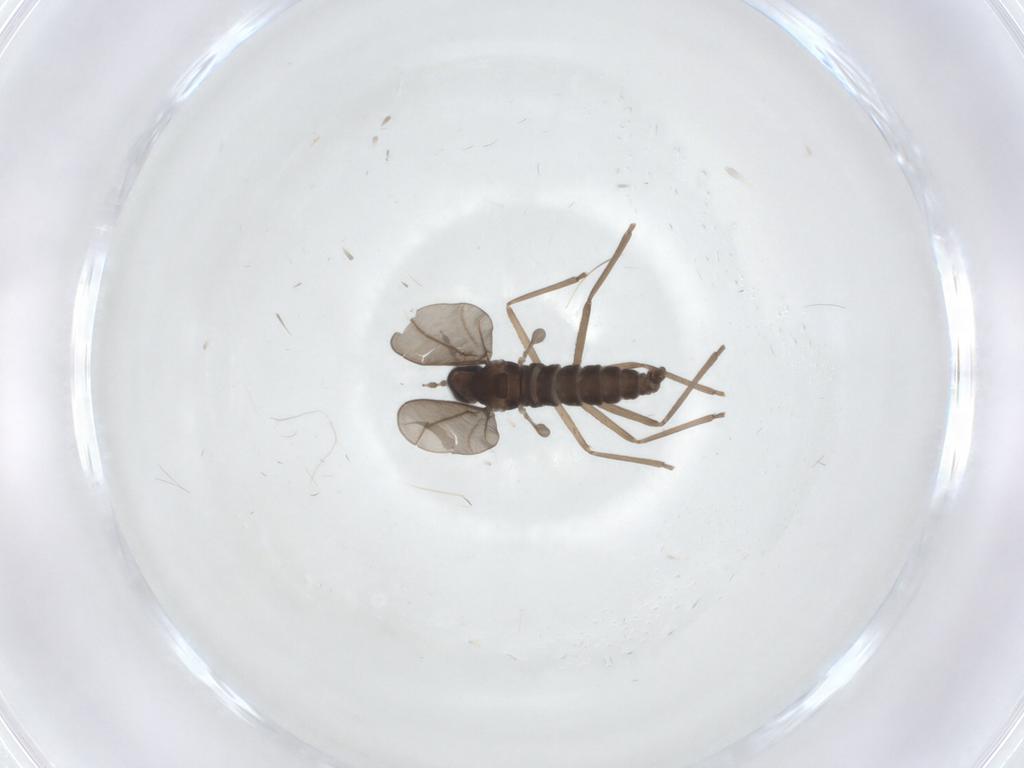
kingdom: Animalia
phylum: Arthropoda
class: Insecta
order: Diptera
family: Cecidomyiidae
